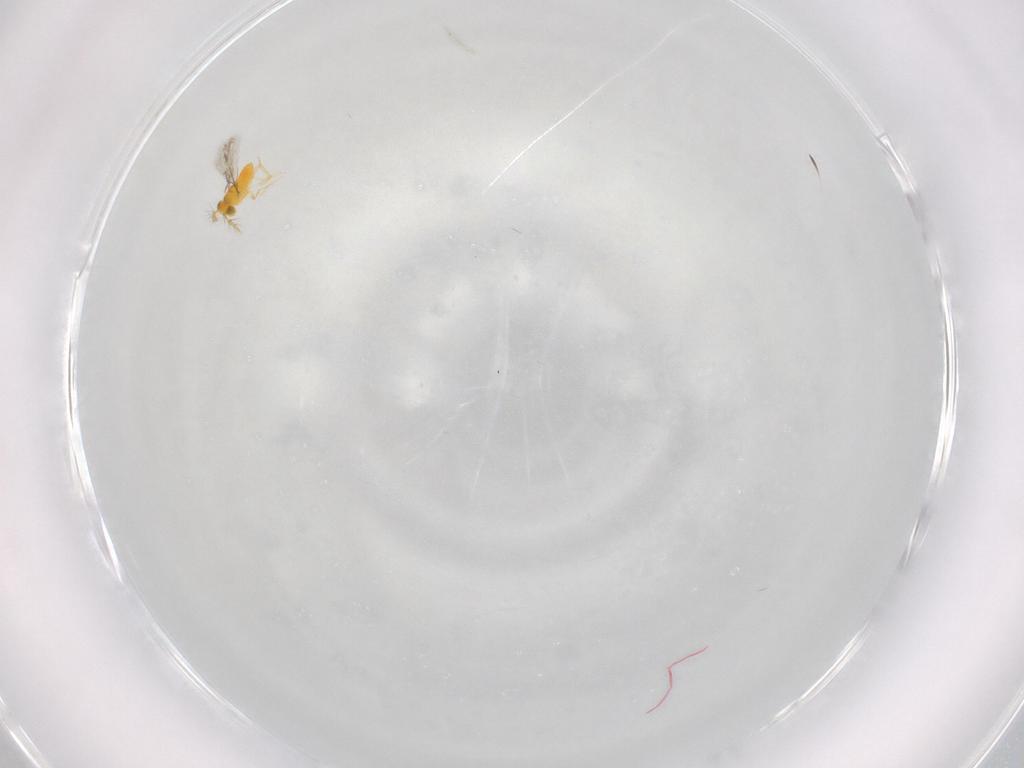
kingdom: Animalia
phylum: Arthropoda
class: Insecta
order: Hymenoptera
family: Aphelinidae
